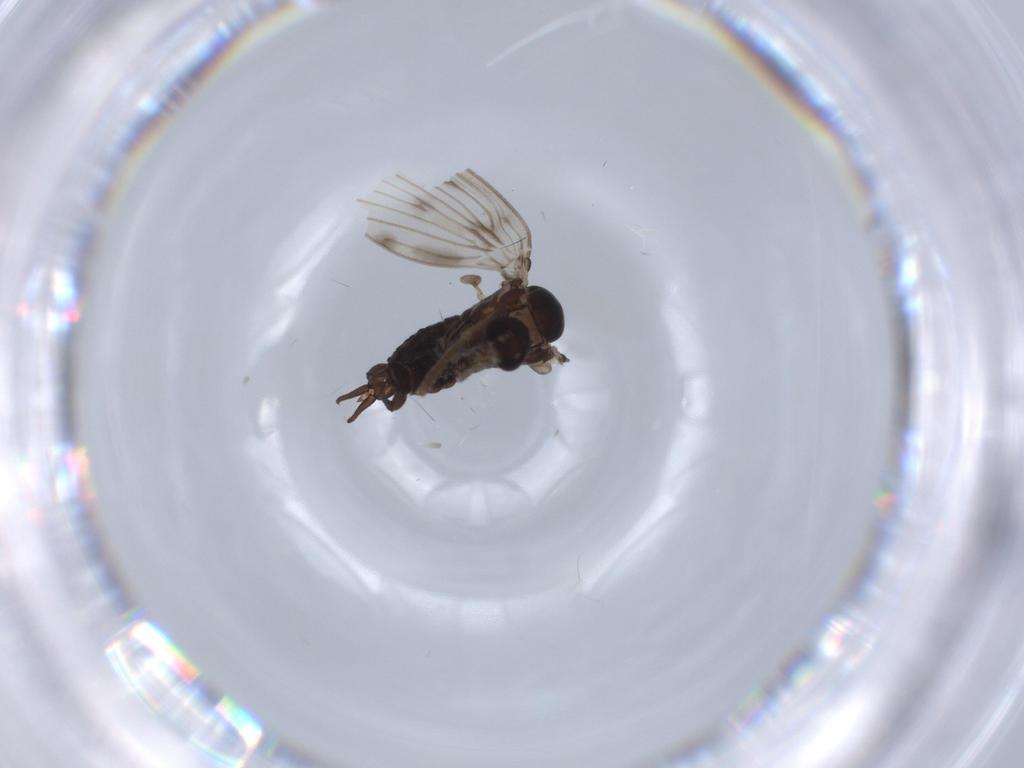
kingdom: Animalia
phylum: Arthropoda
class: Insecta
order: Diptera
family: Psychodidae
